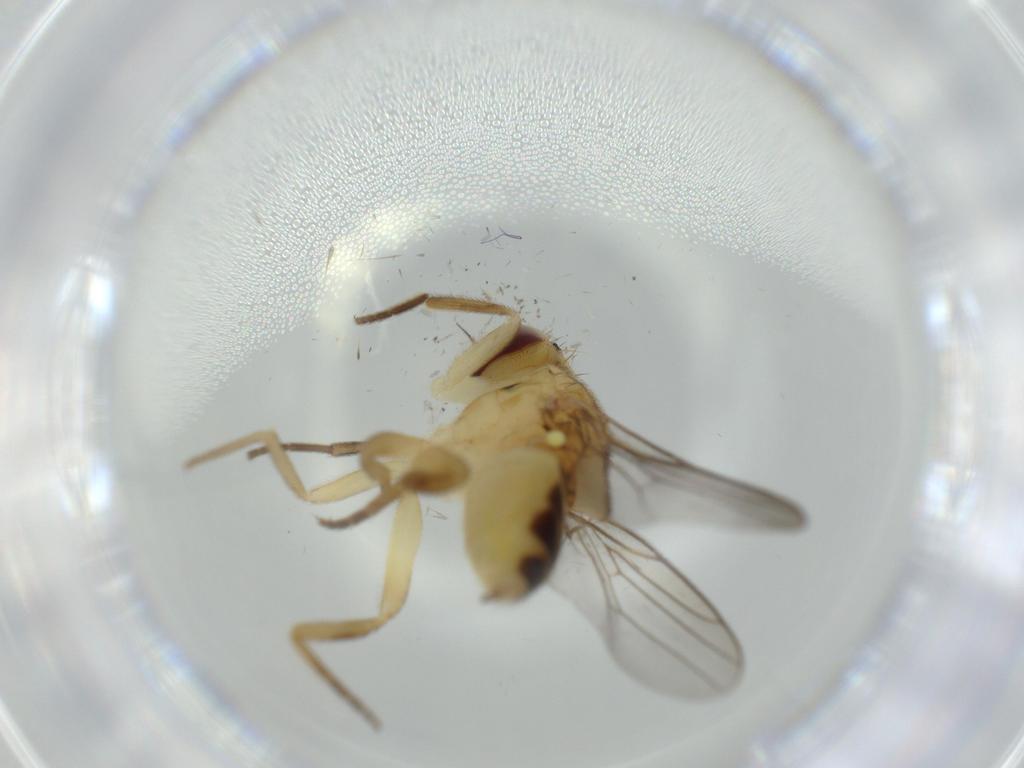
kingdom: Animalia
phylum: Arthropoda
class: Insecta
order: Diptera
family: Chloropidae
